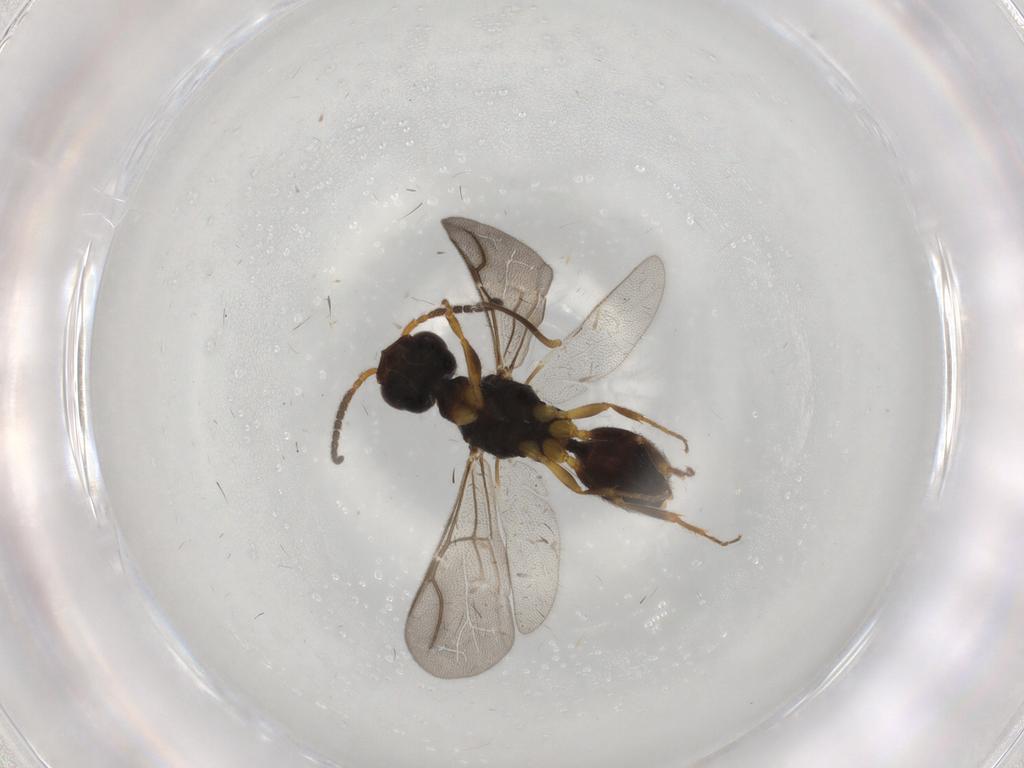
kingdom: Animalia
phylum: Arthropoda
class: Insecta
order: Hymenoptera
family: Bethylidae
